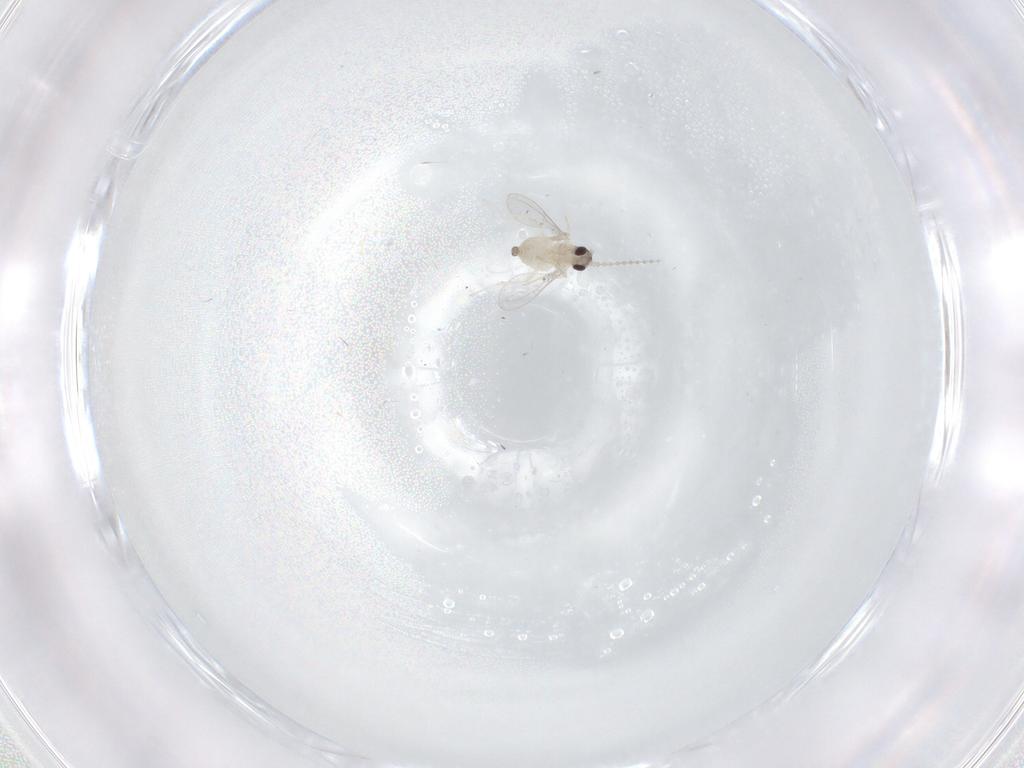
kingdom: Animalia
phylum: Arthropoda
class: Insecta
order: Diptera
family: Cecidomyiidae
